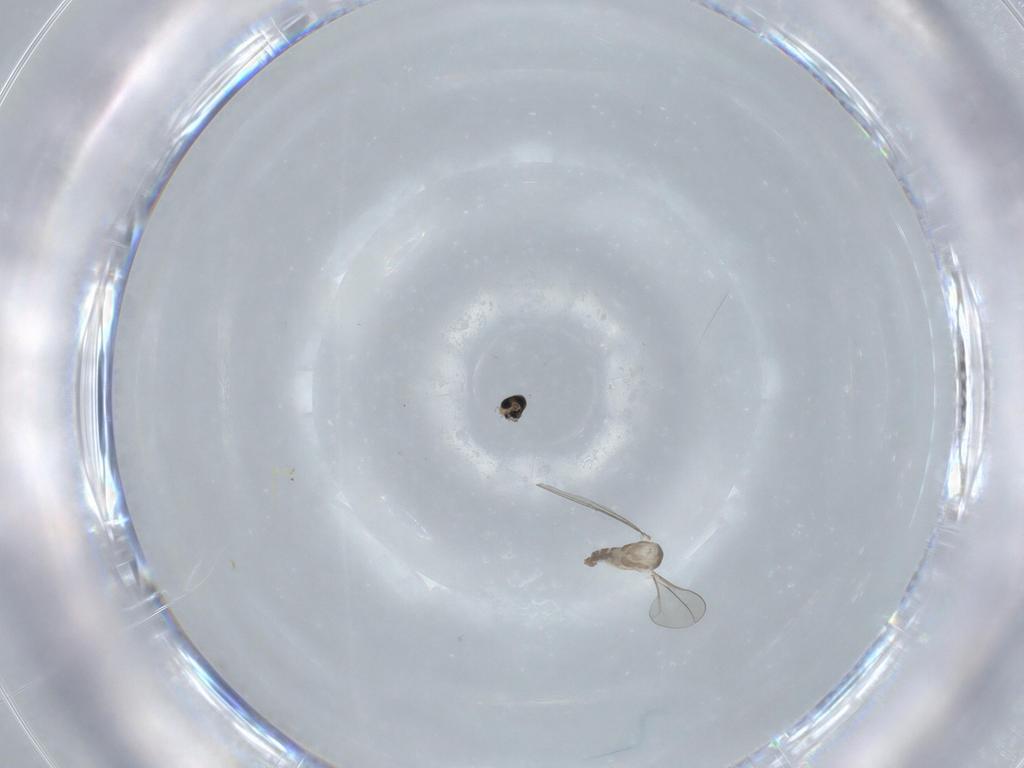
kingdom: Animalia
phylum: Arthropoda
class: Insecta
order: Diptera
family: Cecidomyiidae
